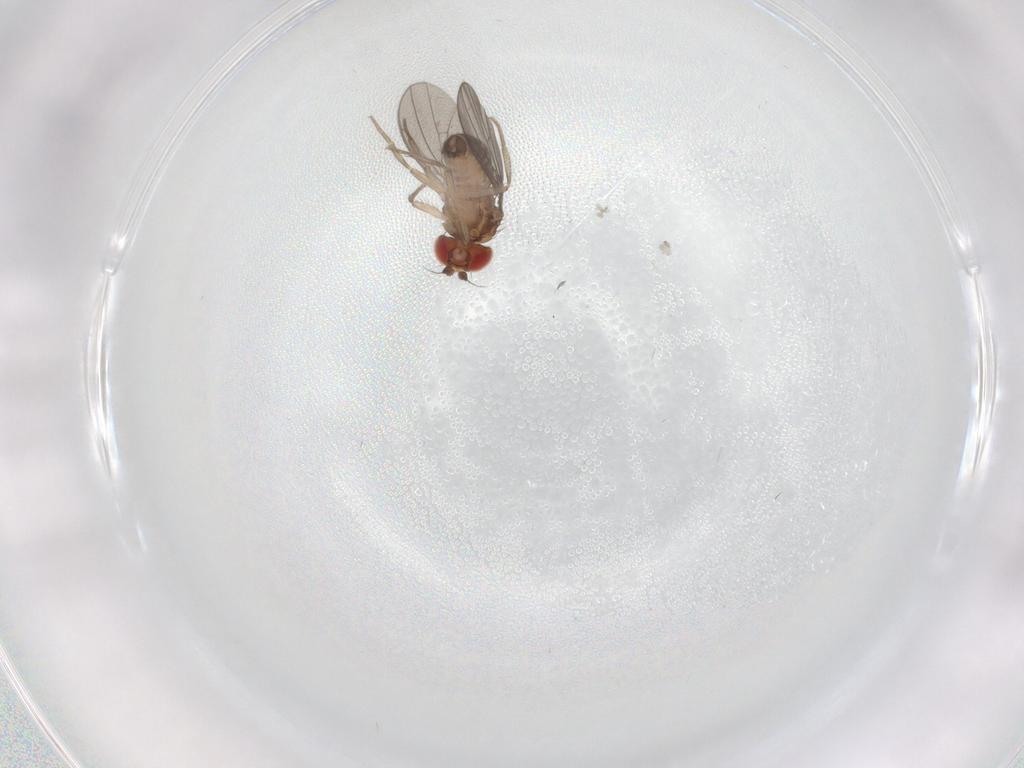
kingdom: Animalia
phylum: Arthropoda
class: Insecta
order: Diptera
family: Drosophilidae
